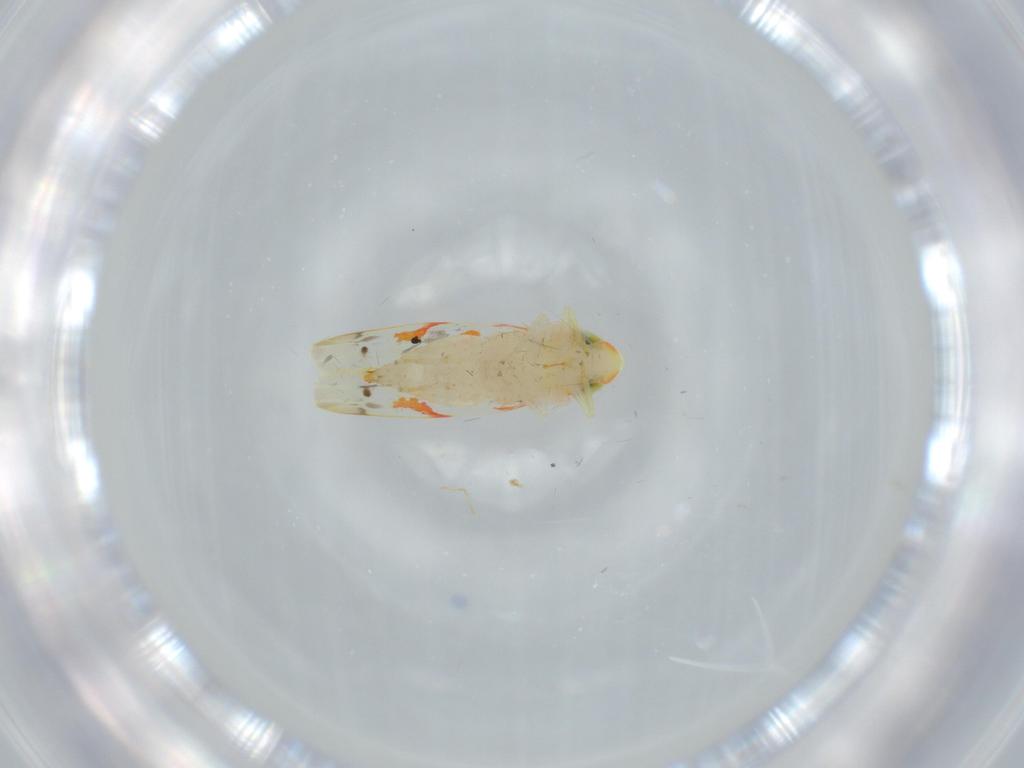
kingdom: Animalia
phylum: Arthropoda
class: Insecta
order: Hemiptera
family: Cicadellidae
